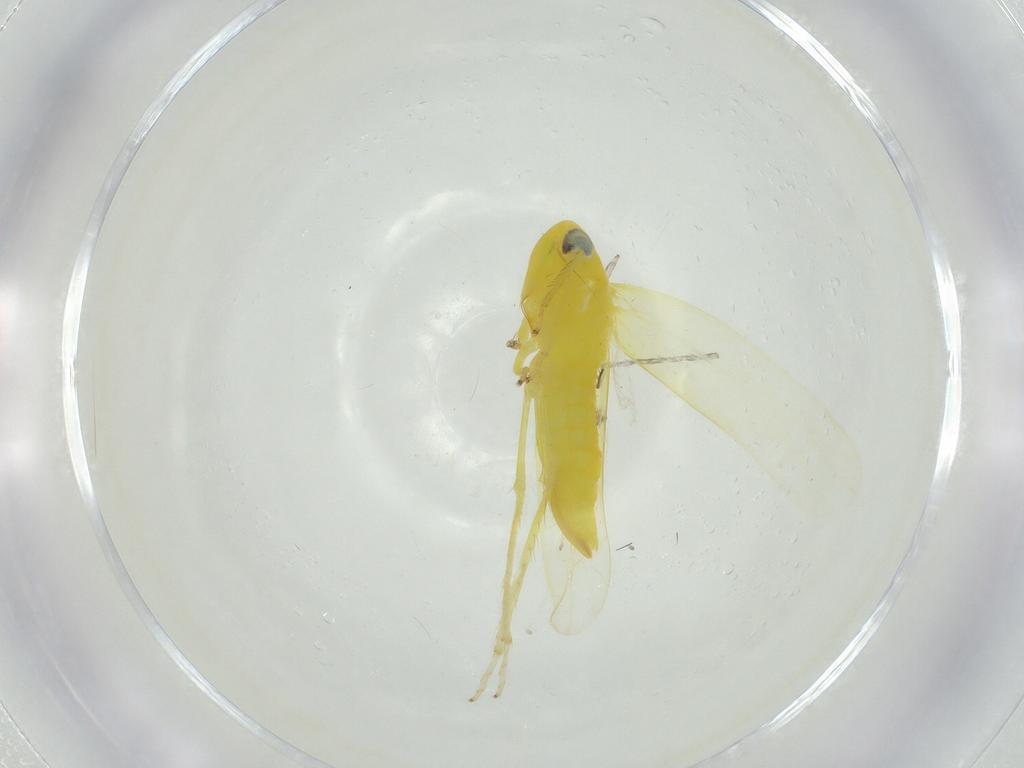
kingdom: Animalia
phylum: Arthropoda
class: Insecta
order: Hemiptera
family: Cicadellidae
